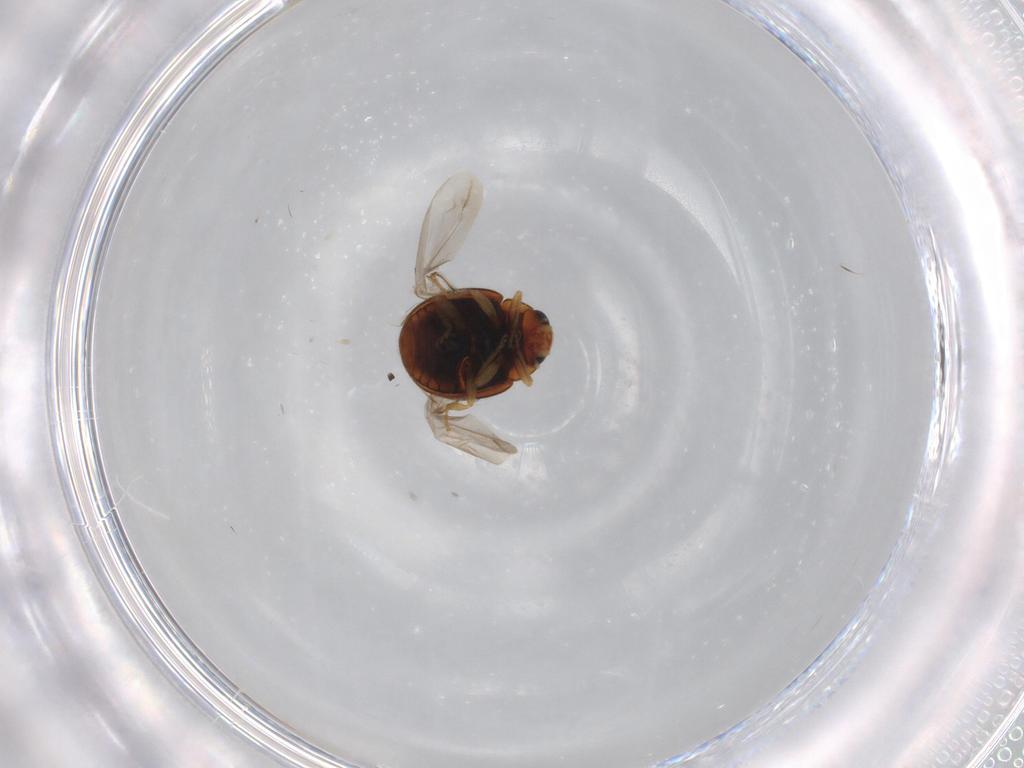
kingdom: Animalia
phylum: Arthropoda
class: Insecta
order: Coleoptera
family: Coccinellidae
